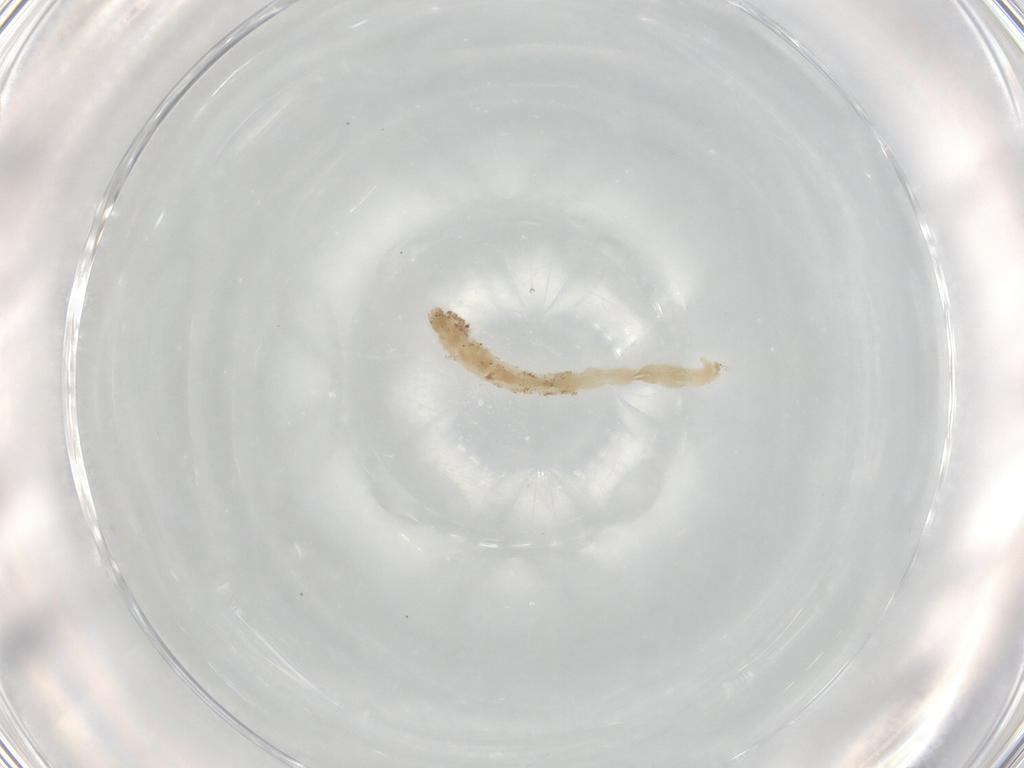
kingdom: Animalia
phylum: Arthropoda
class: Insecta
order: Diptera
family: Chironomidae
